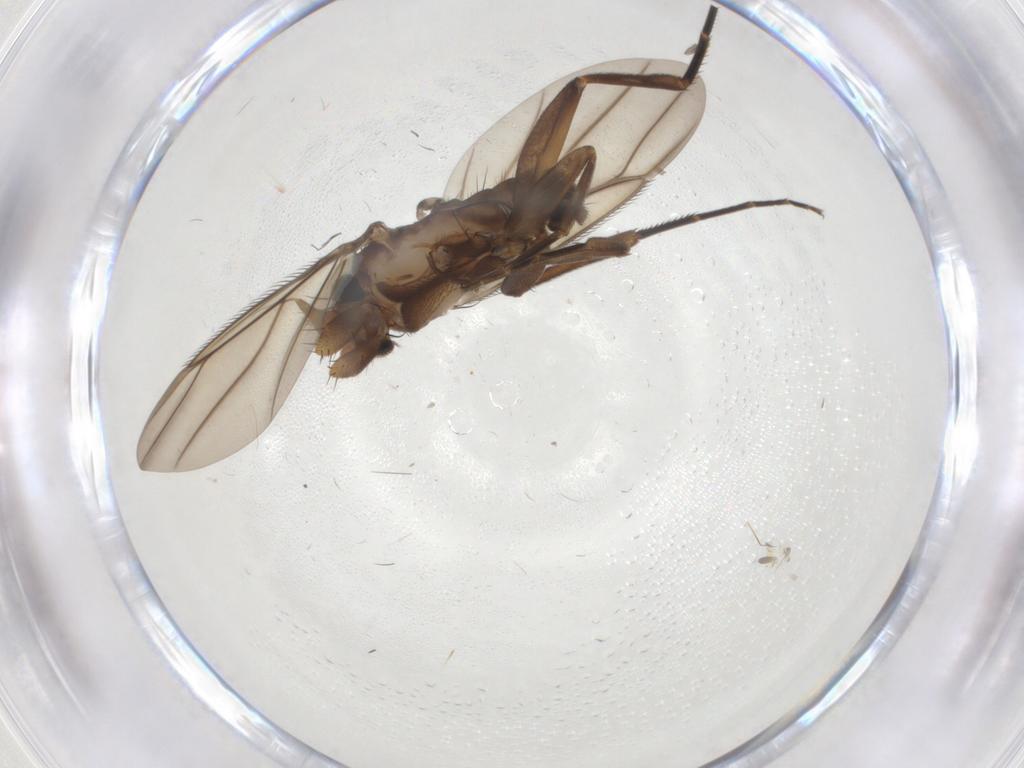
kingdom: Animalia
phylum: Arthropoda
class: Insecta
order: Diptera
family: Phoridae
